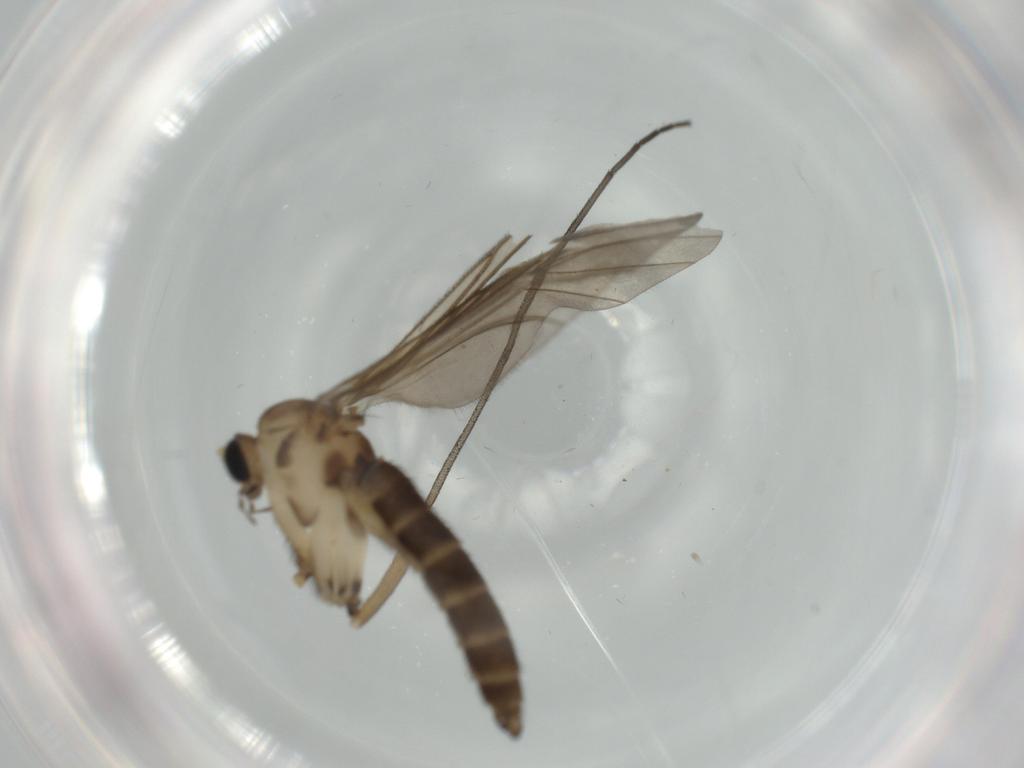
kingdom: Animalia
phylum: Arthropoda
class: Insecta
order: Diptera
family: Sciaridae
